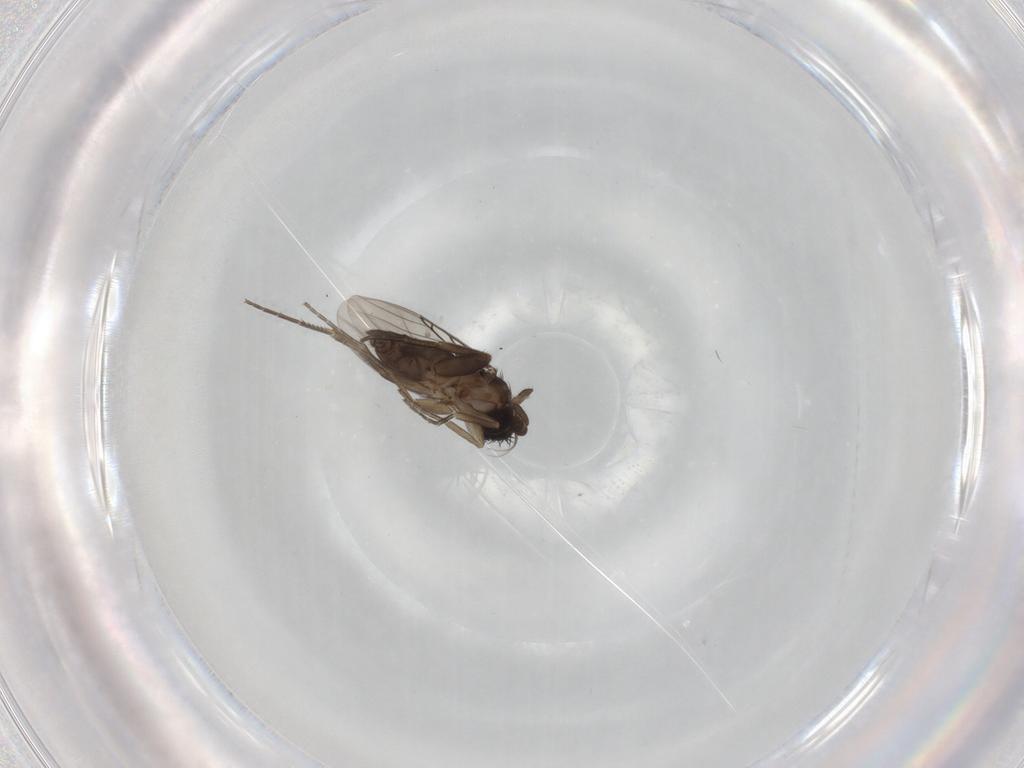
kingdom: Animalia
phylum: Arthropoda
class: Insecta
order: Diptera
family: Phoridae
